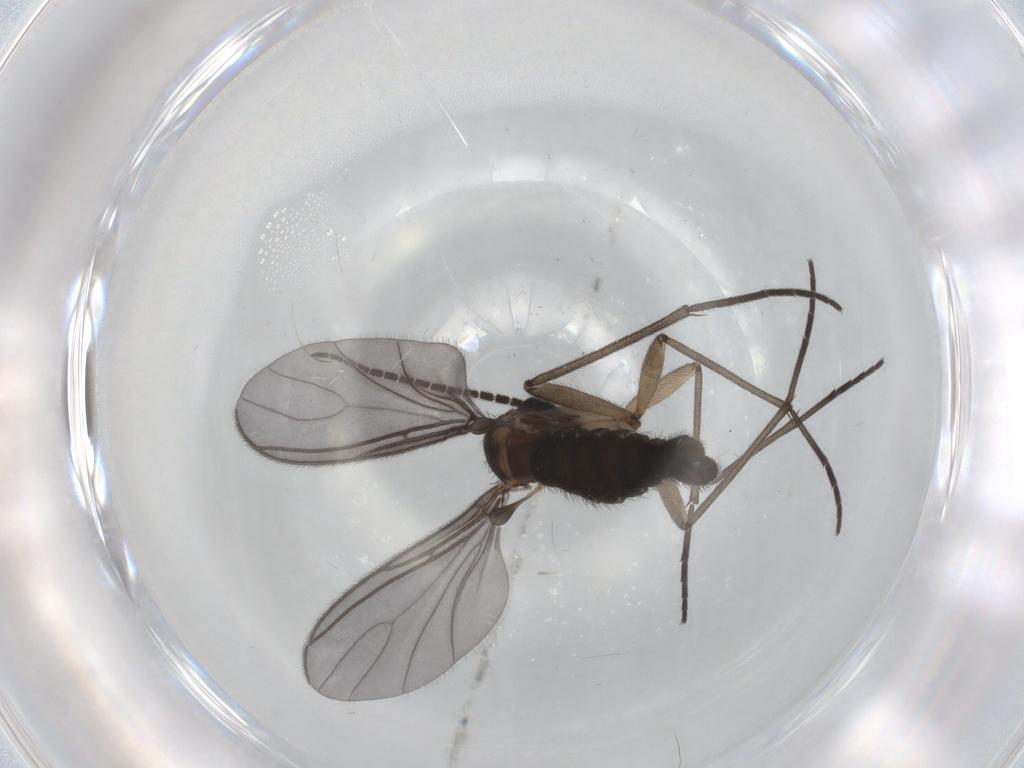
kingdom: Animalia
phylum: Arthropoda
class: Insecta
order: Diptera
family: Sciaridae
